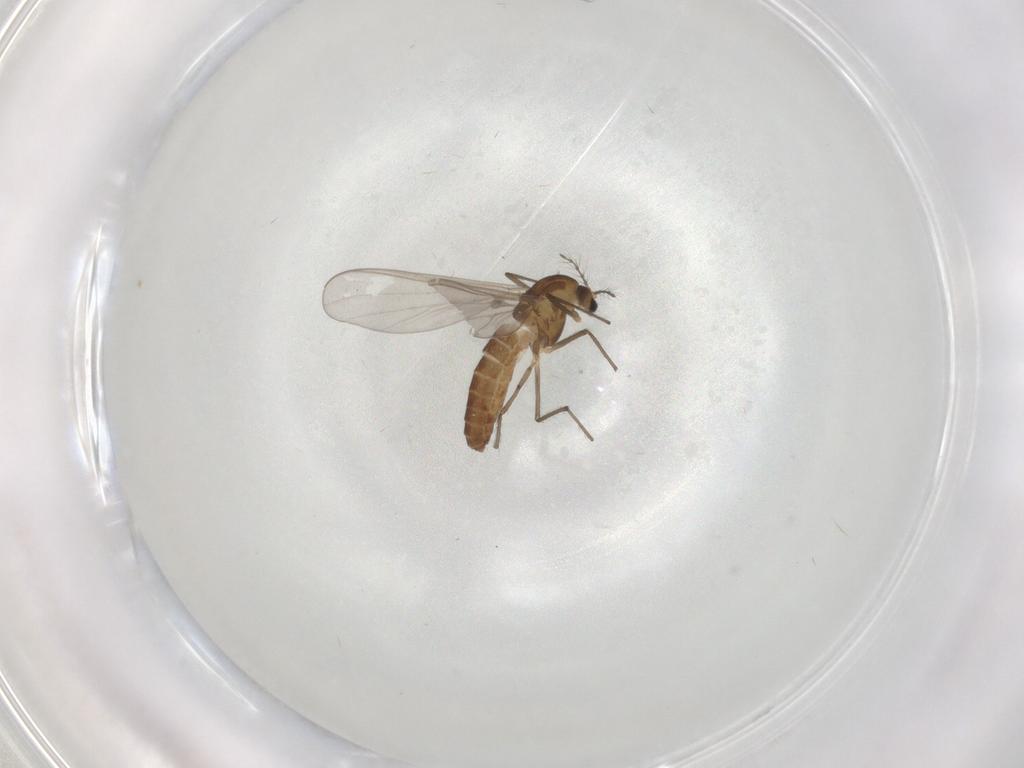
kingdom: Animalia
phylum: Arthropoda
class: Insecta
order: Diptera
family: Chironomidae
